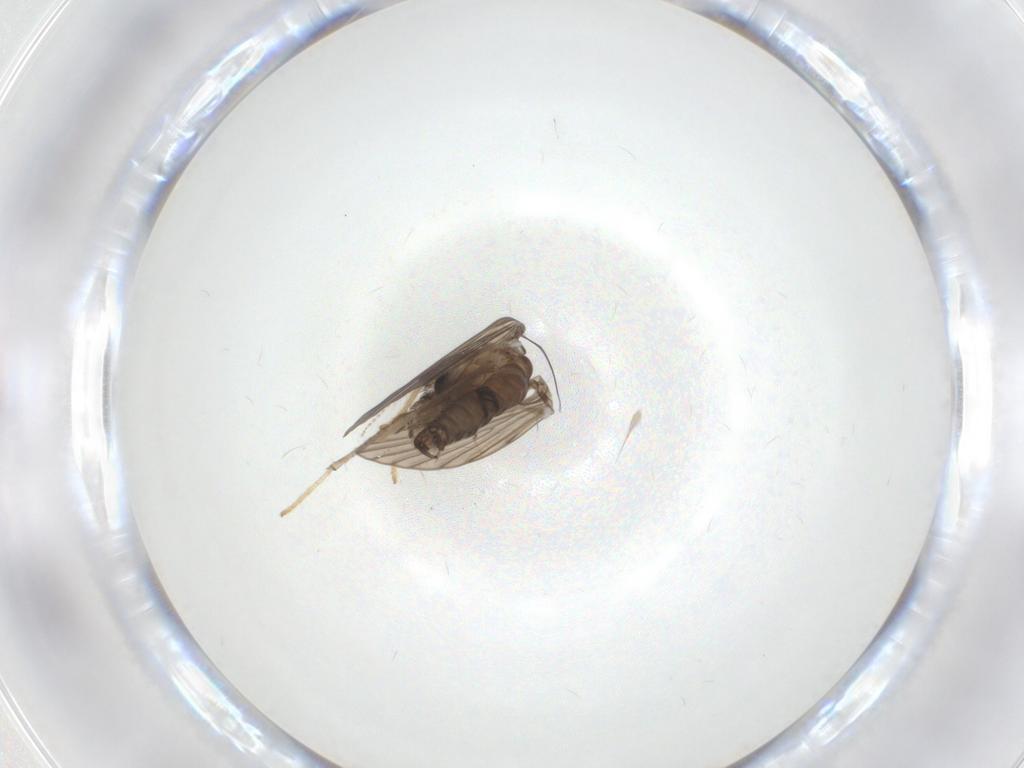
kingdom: Animalia
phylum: Arthropoda
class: Insecta
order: Diptera
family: Psychodidae
